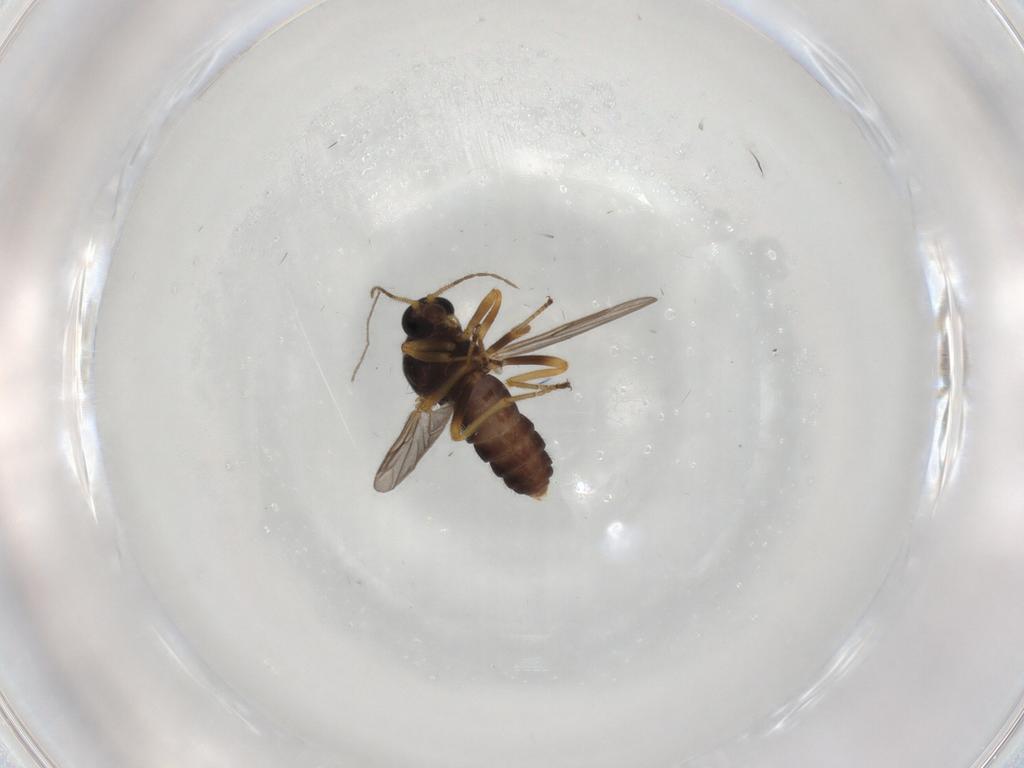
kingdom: Animalia
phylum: Arthropoda
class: Insecta
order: Diptera
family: Ceratopogonidae
